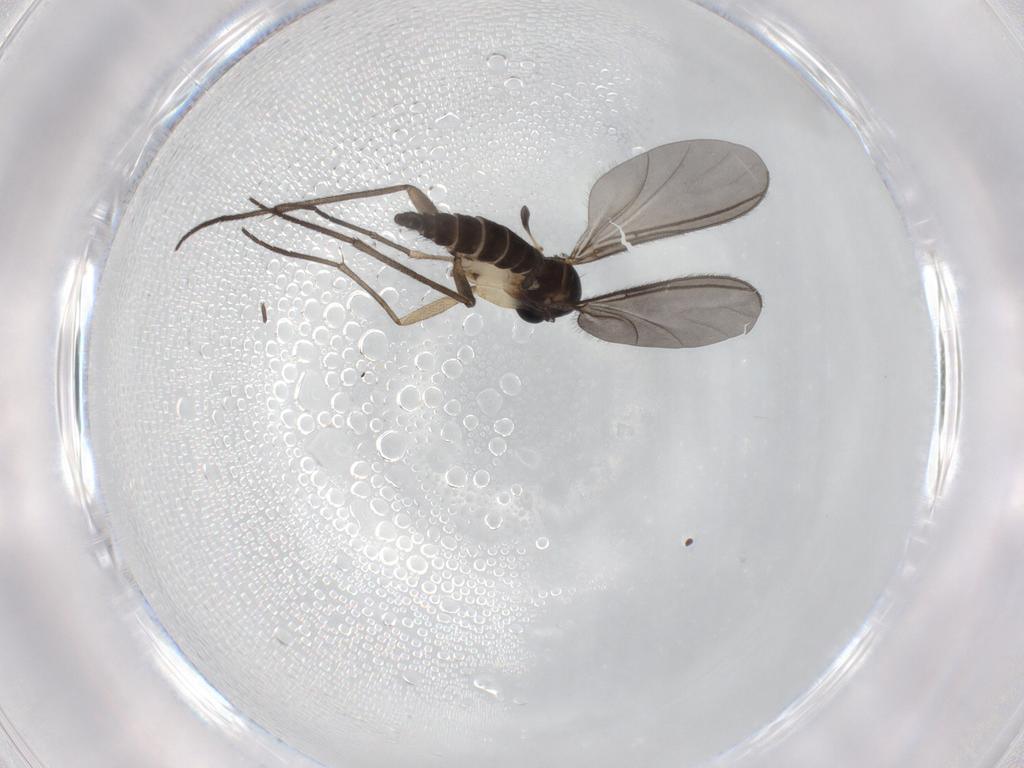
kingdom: Animalia
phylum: Arthropoda
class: Insecta
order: Diptera
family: Sciaridae
